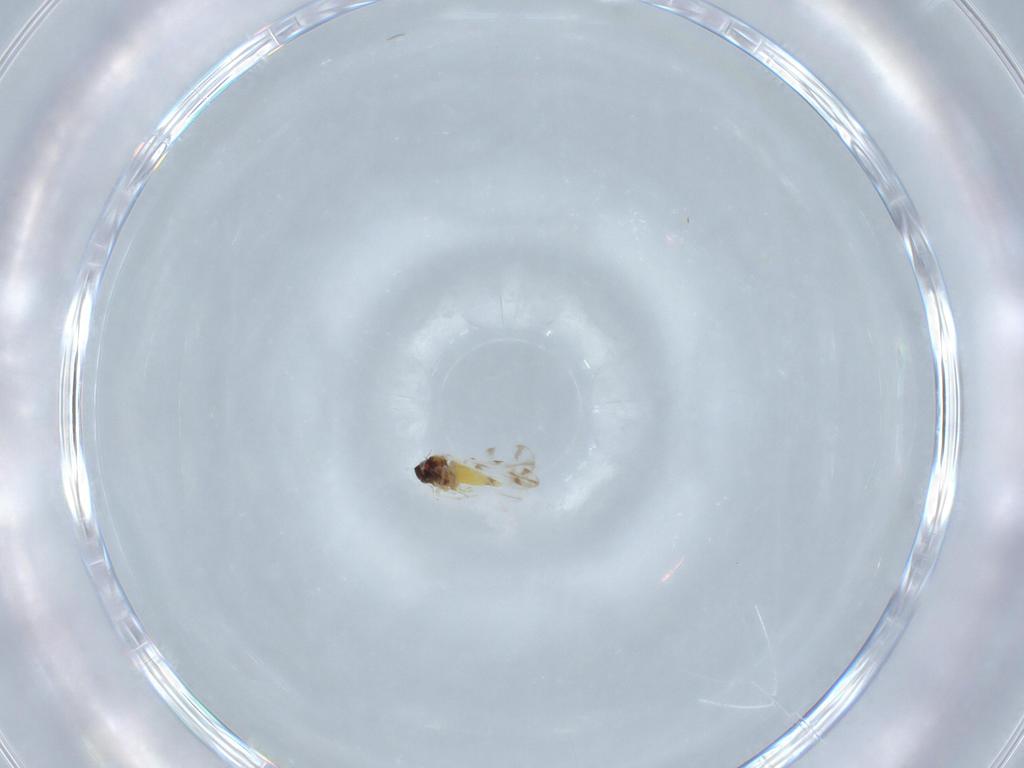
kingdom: Animalia
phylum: Arthropoda
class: Insecta
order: Hemiptera
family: Aleyrodidae
